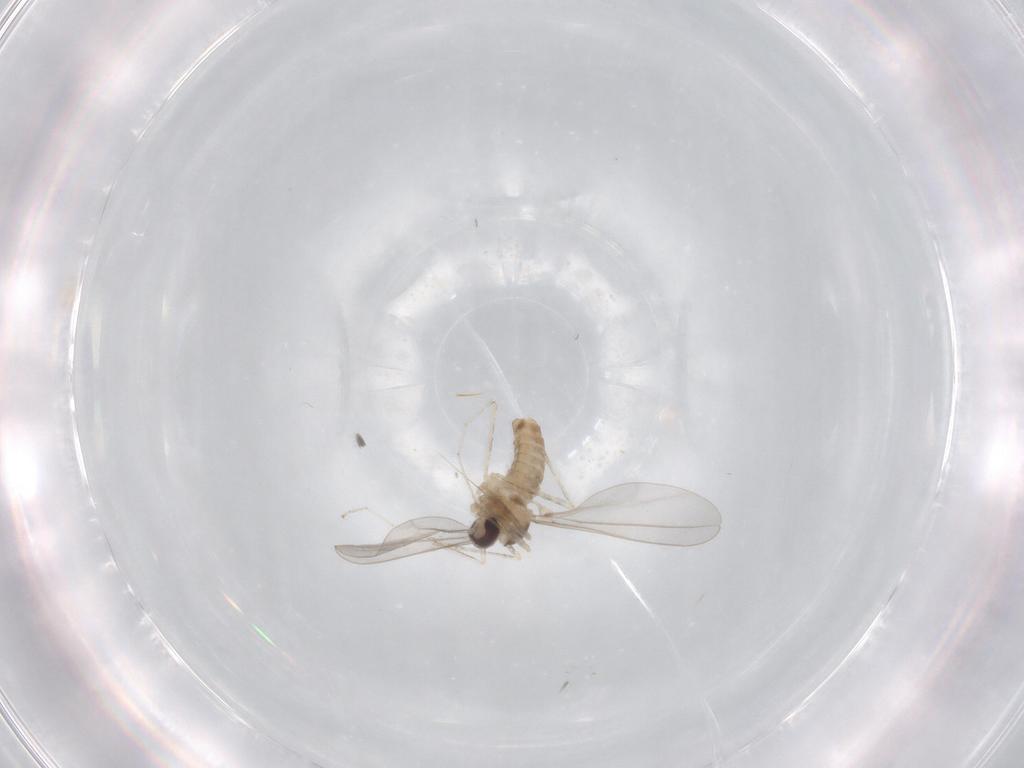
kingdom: Animalia
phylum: Arthropoda
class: Insecta
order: Diptera
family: Cecidomyiidae
